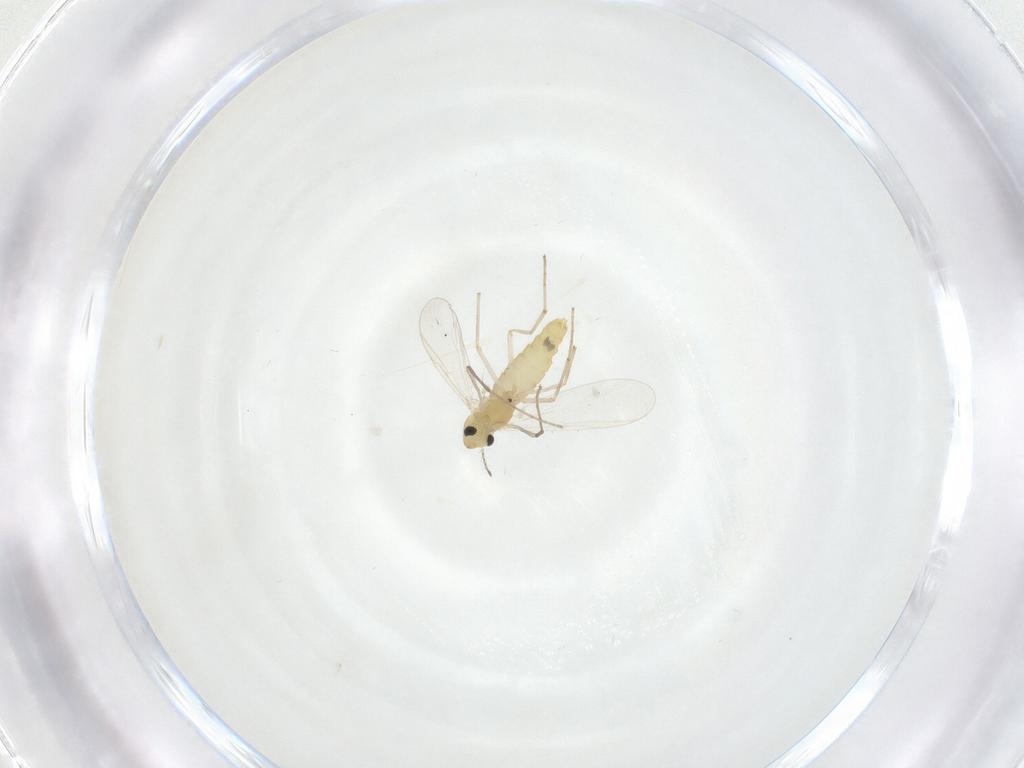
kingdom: Animalia
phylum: Arthropoda
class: Insecta
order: Diptera
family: Chironomidae
